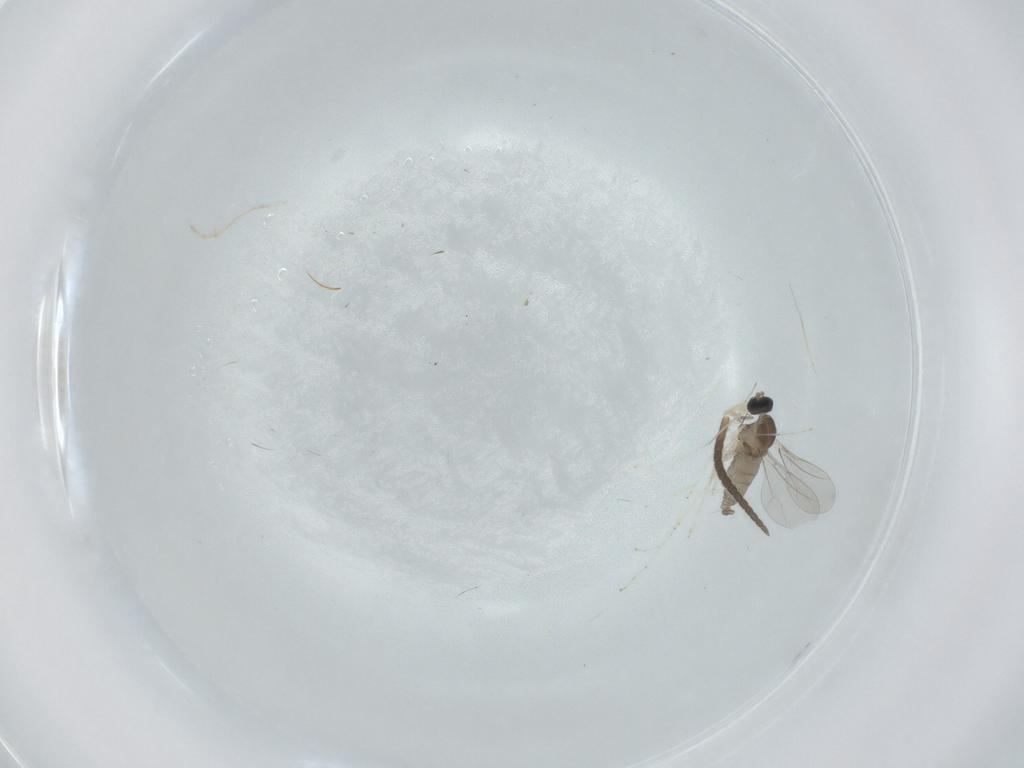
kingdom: Animalia
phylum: Arthropoda
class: Insecta
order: Diptera
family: Cecidomyiidae
